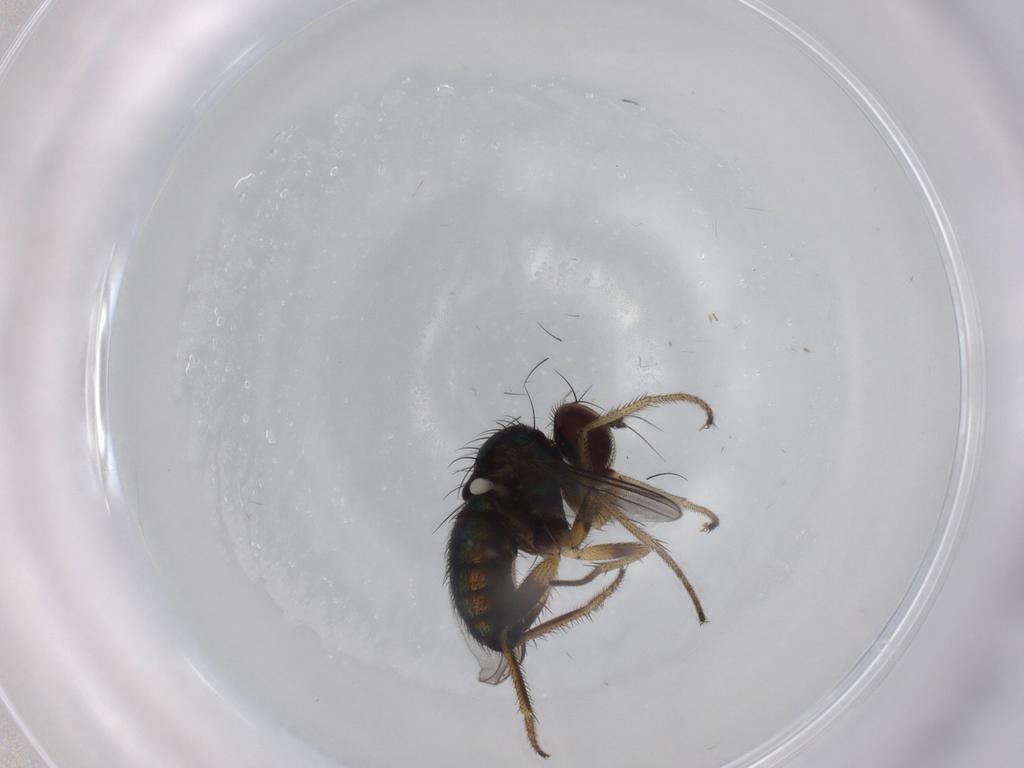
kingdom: Animalia
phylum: Arthropoda
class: Insecta
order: Diptera
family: Dolichopodidae
